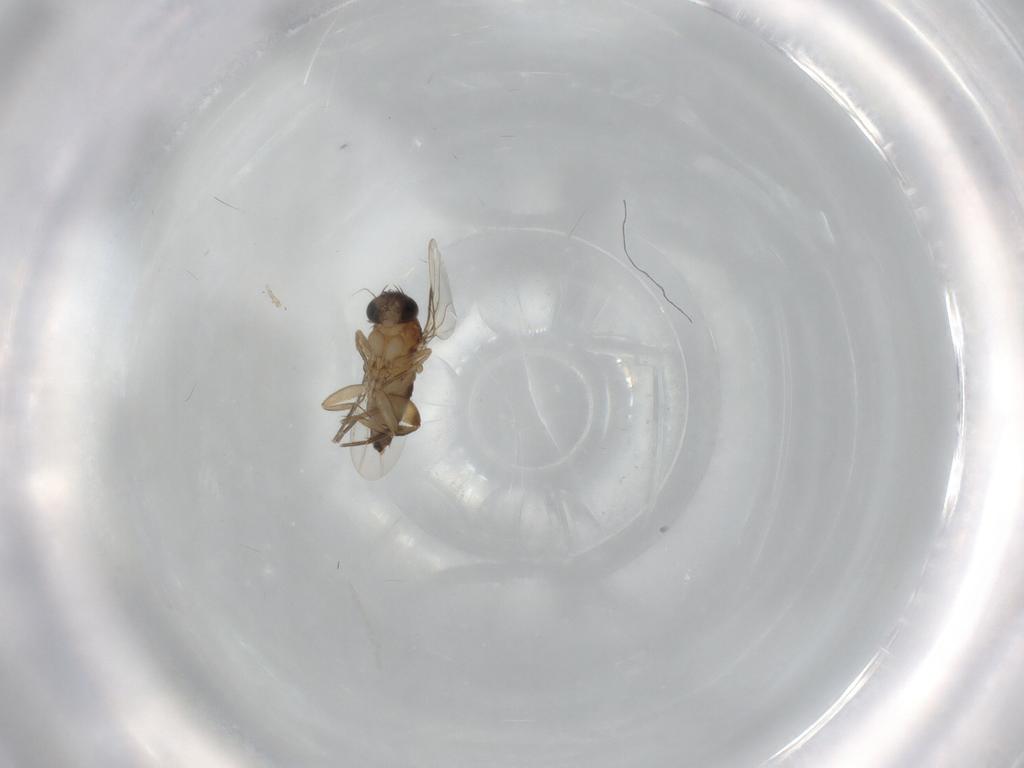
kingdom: Animalia
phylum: Arthropoda
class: Insecta
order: Diptera
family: Phoridae
